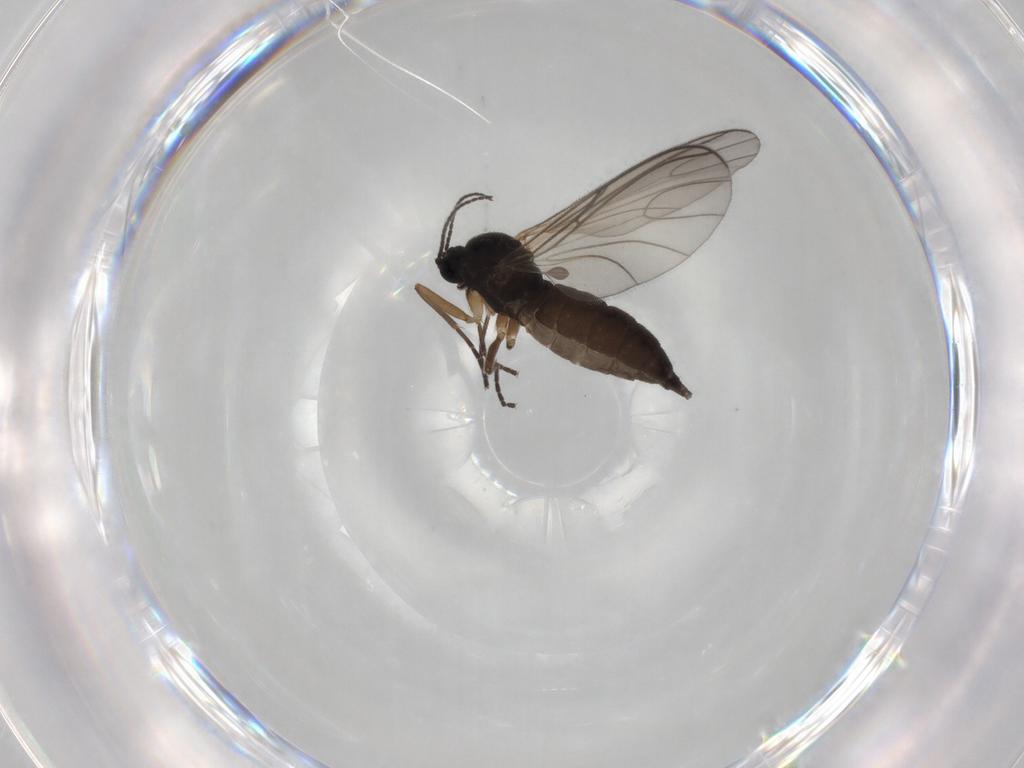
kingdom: Animalia
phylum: Arthropoda
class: Insecta
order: Diptera
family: Sciaridae
